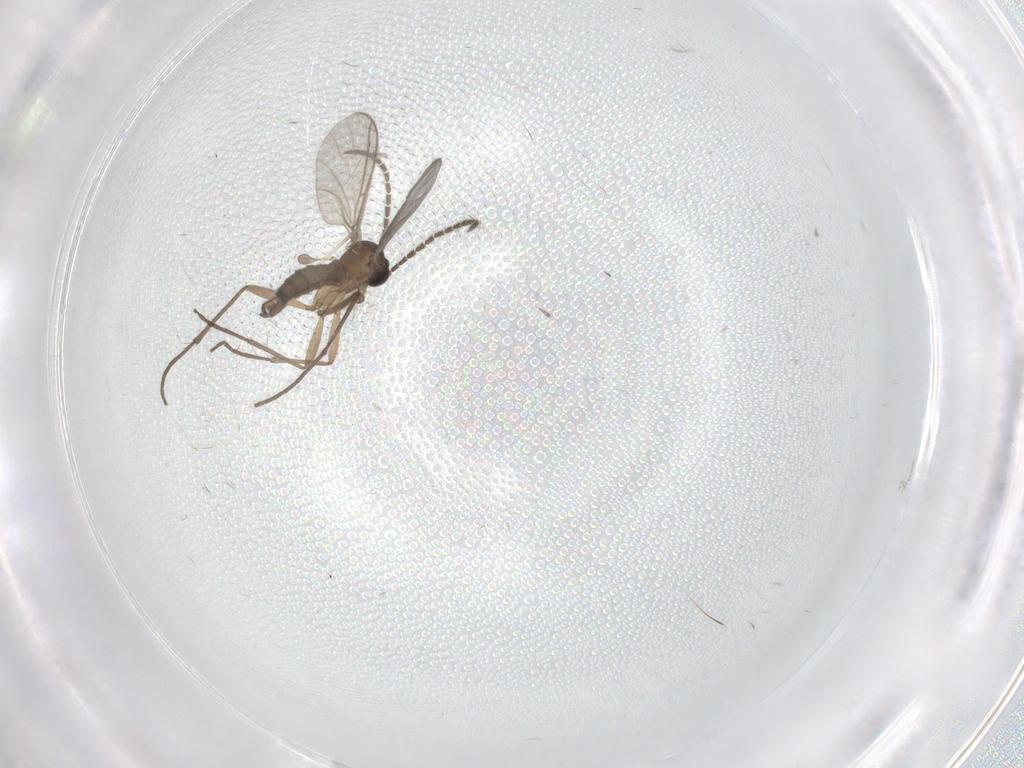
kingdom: Animalia
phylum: Arthropoda
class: Insecta
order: Diptera
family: Sciaridae
